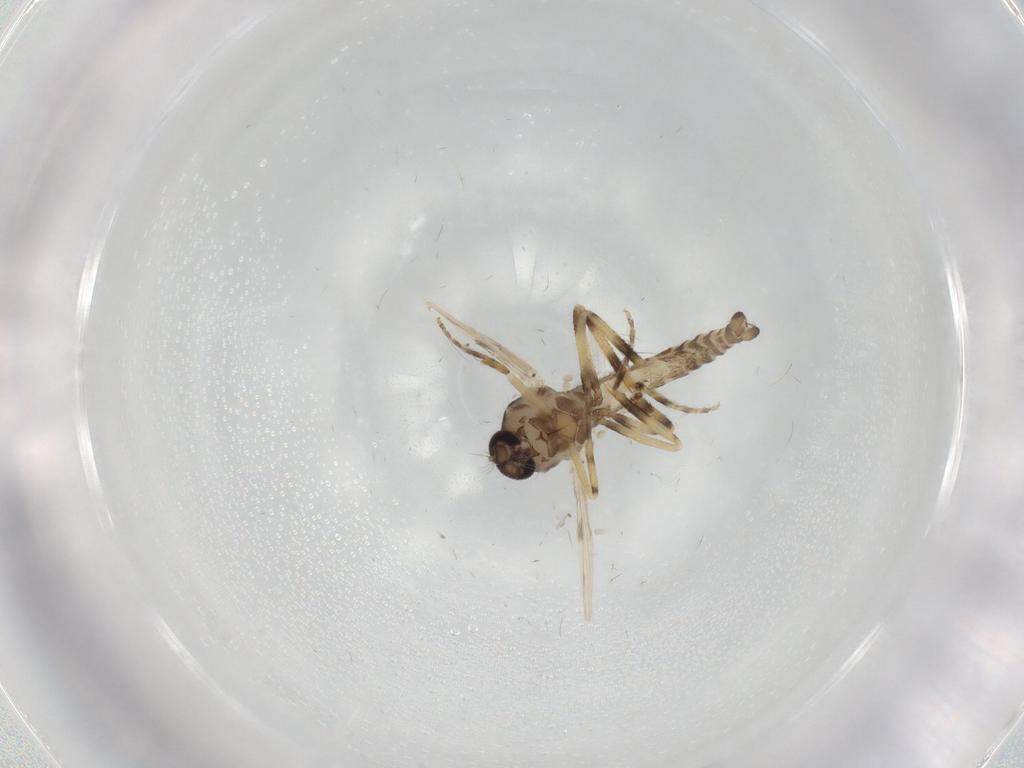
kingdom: Animalia
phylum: Arthropoda
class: Insecta
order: Diptera
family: Ceratopogonidae
